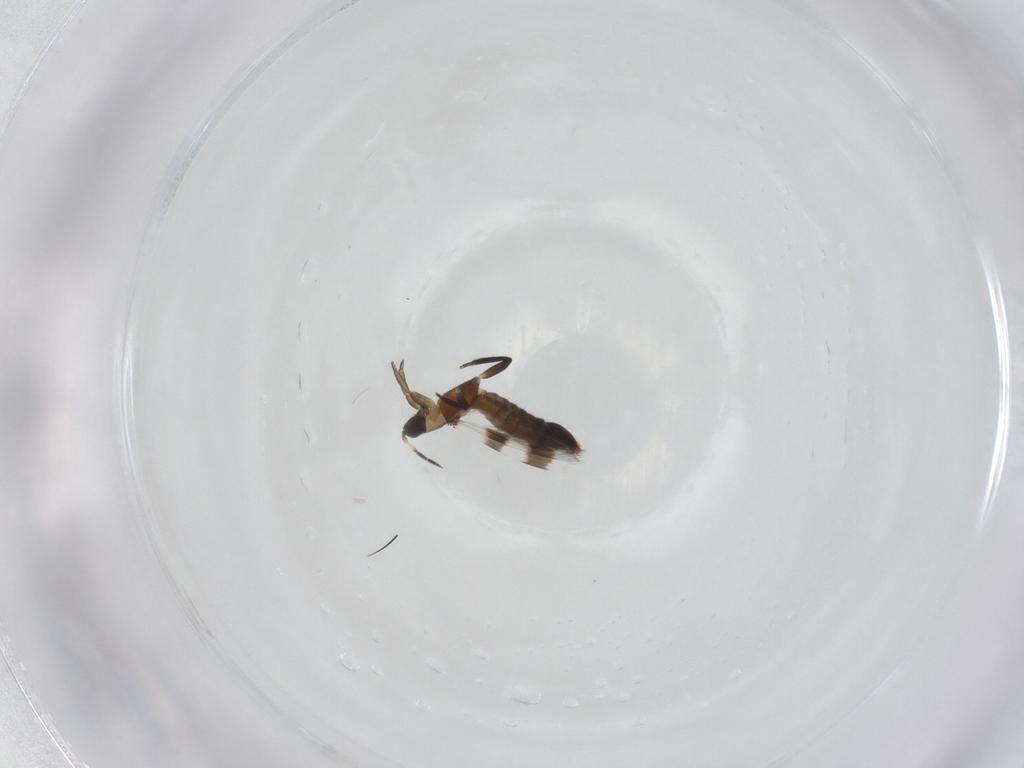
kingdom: Animalia
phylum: Arthropoda
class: Insecta
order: Thysanoptera
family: Aeolothripidae
